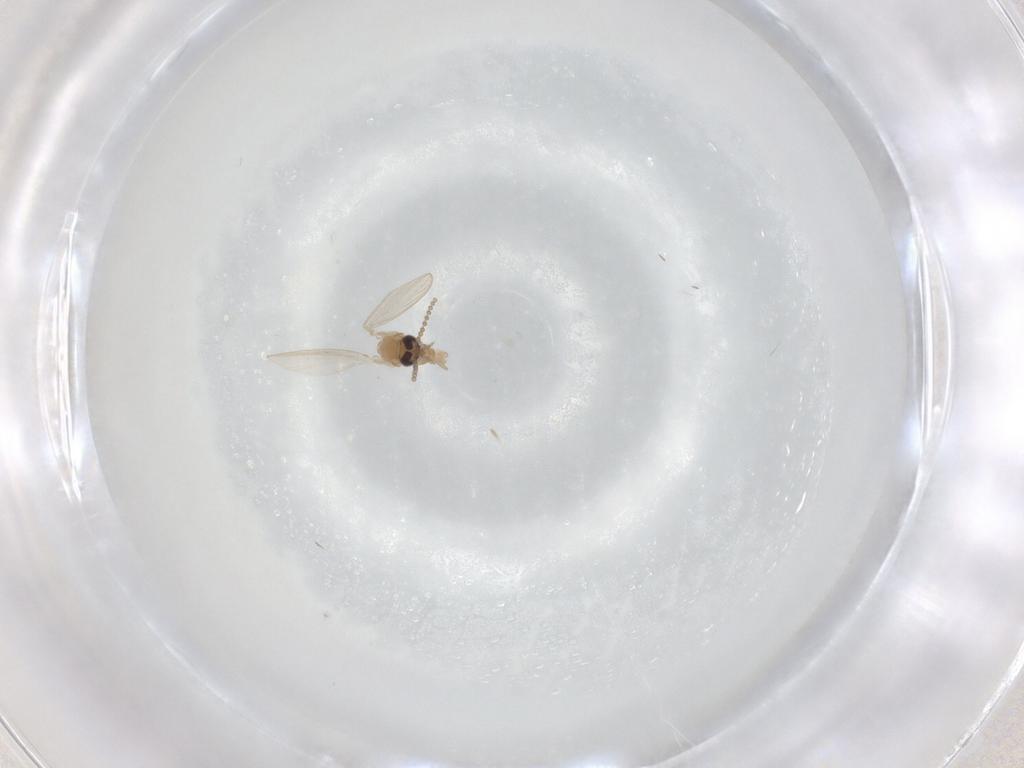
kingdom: Animalia
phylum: Arthropoda
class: Insecta
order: Diptera
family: Psychodidae
